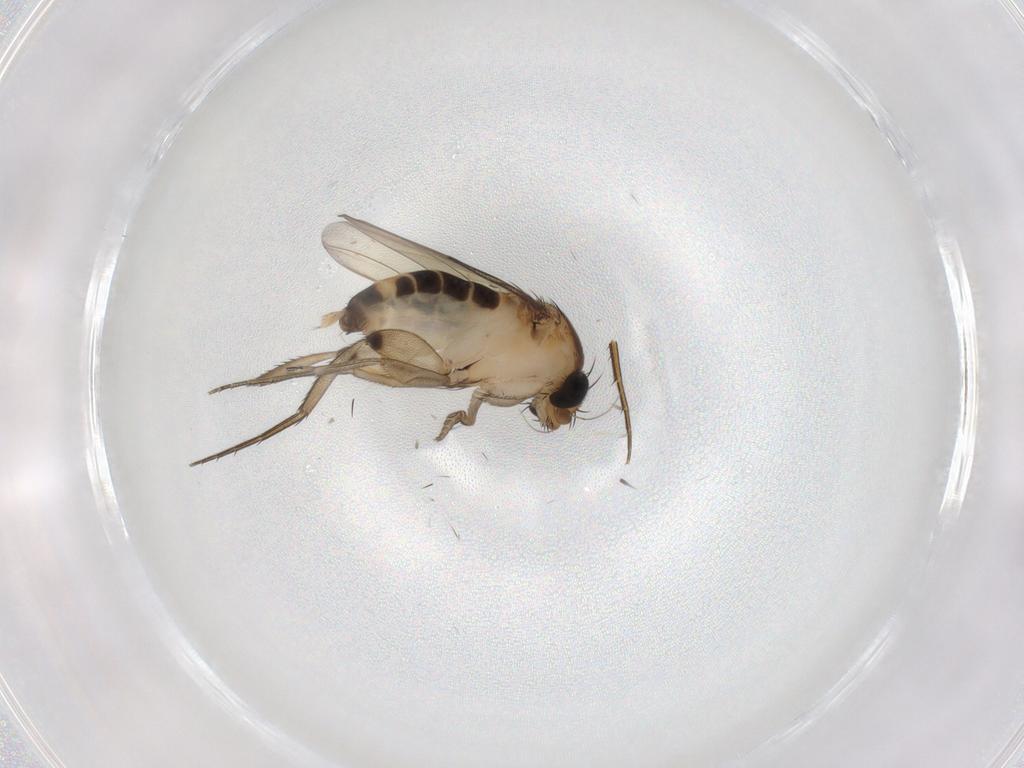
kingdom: Animalia
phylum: Arthropoda
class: Insecta
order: Diptera
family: Phoridae
